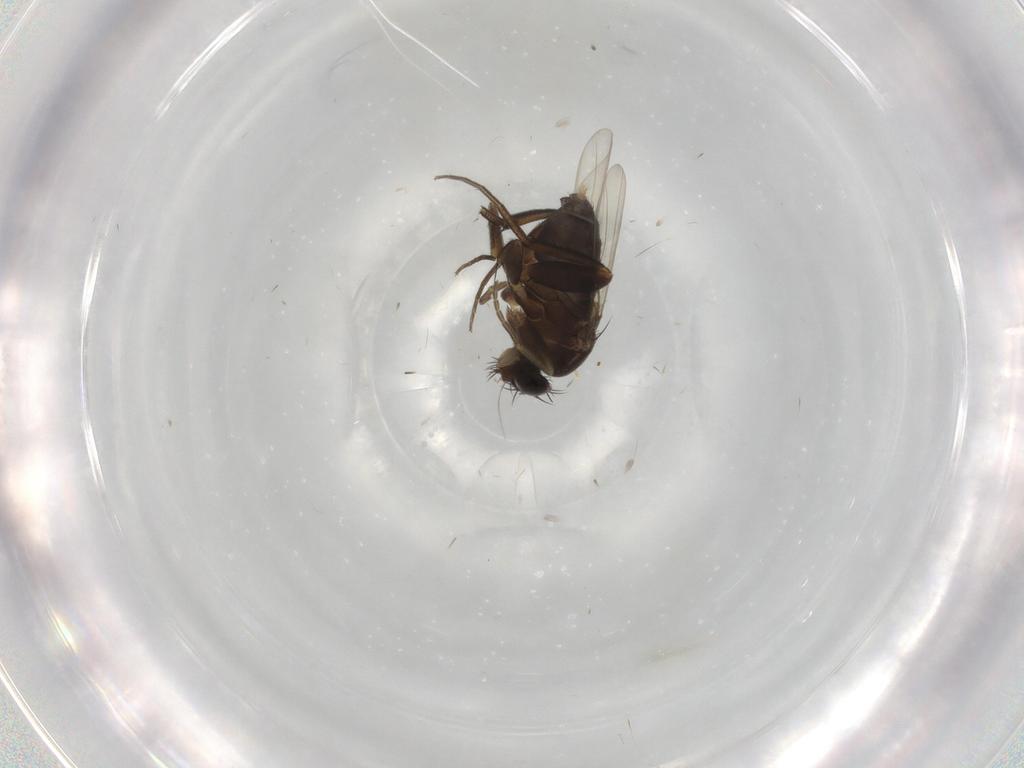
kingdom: Animalia
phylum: Arthropoda
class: Insecta
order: Diptera
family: Phoridae
